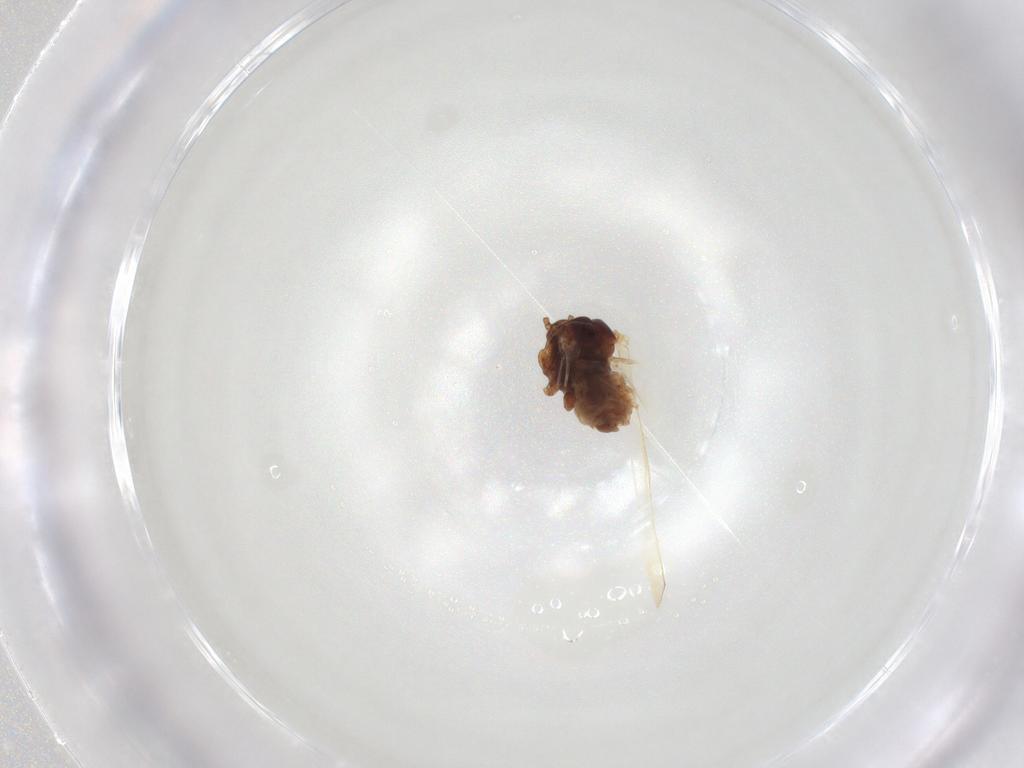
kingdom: Animalia
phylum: Arthropoda
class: Insecta
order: Hemiptera
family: Aphididae
